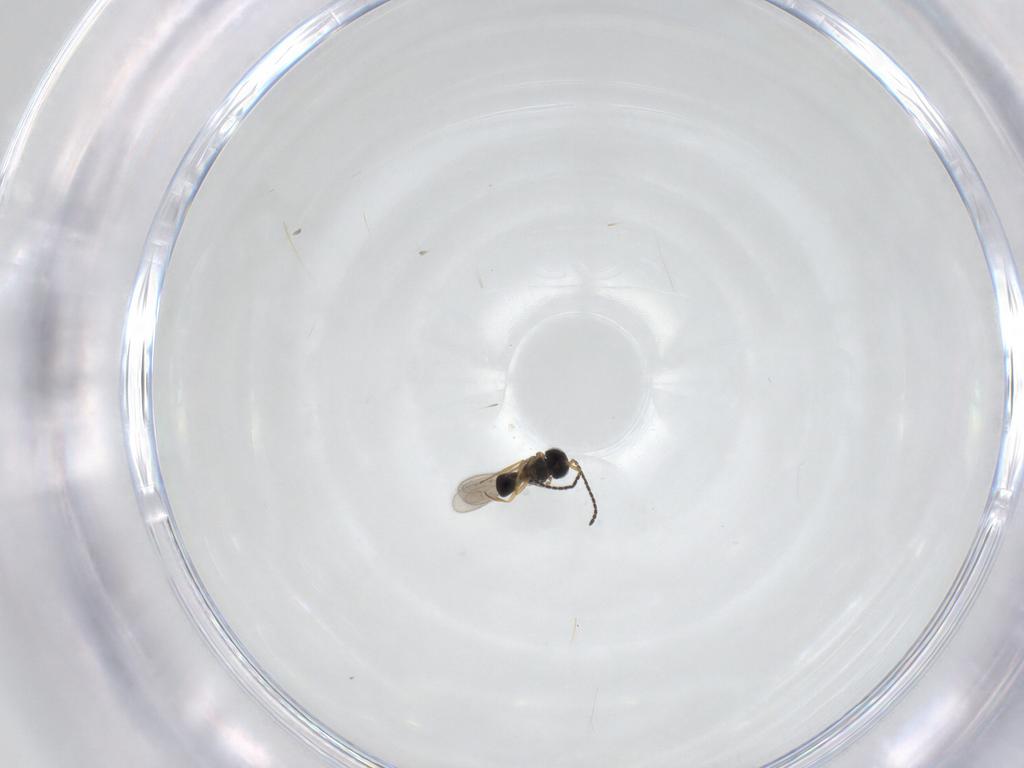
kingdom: Animalia
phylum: Arthropoda
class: Insecta
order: Hymenoptera
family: Scelionidae
